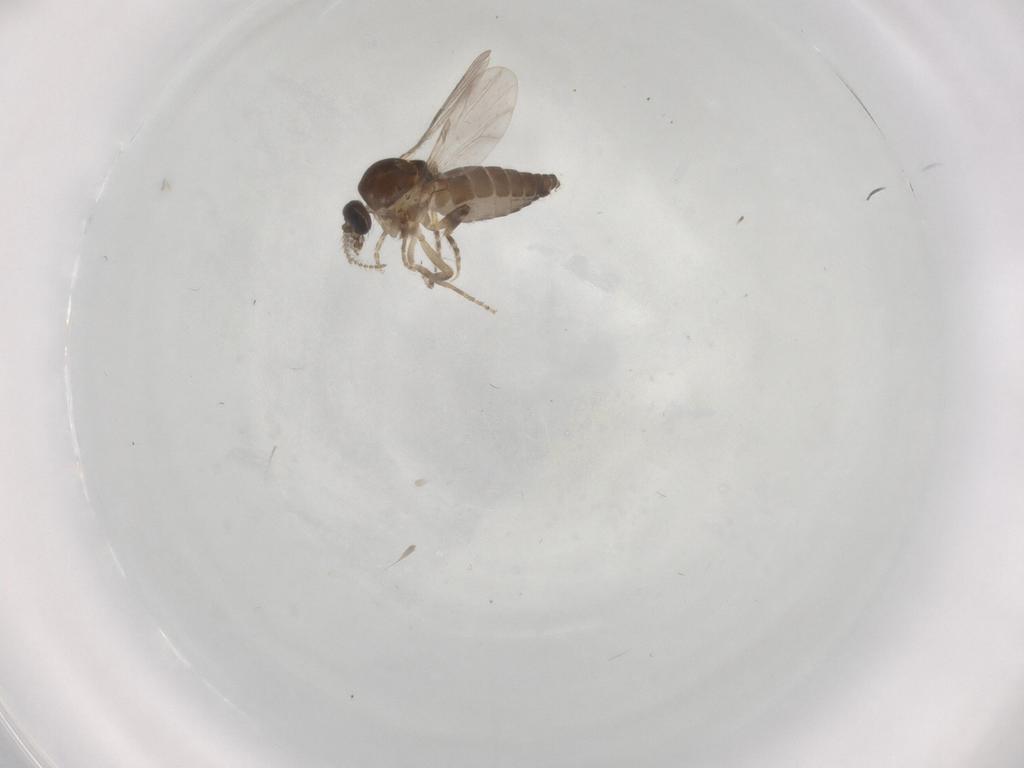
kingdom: Animalia
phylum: Arthropoda
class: Insecta
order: Diptera
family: Ceratopogonidae
